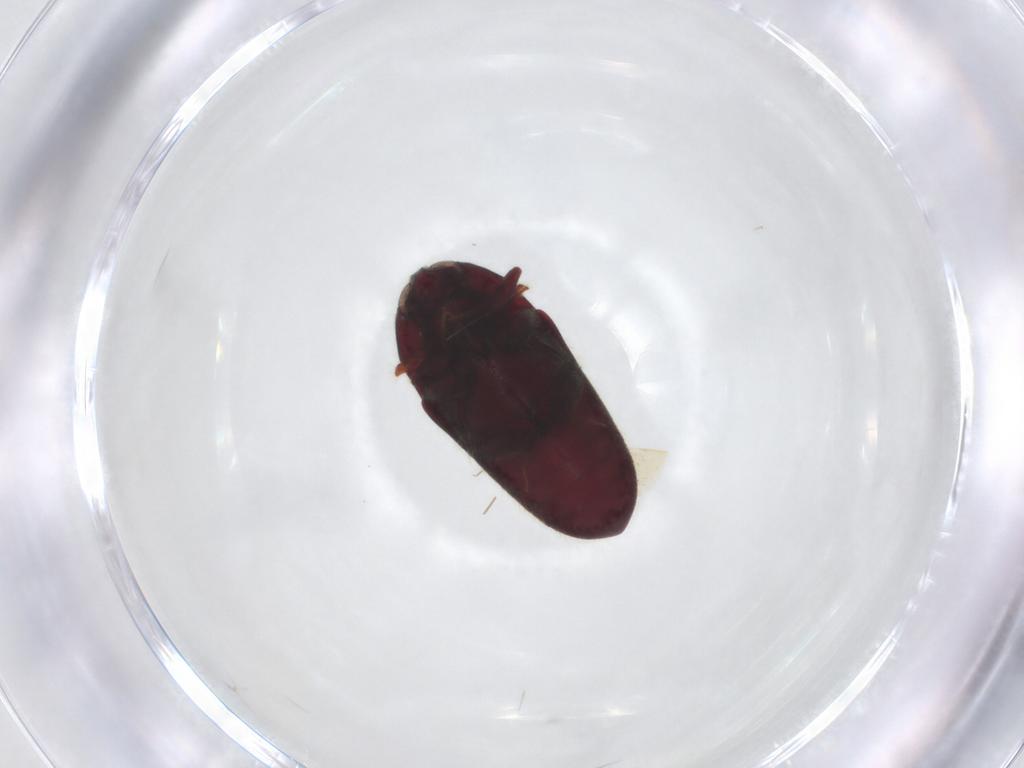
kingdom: Animalia
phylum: Arthropoda
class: Insecta
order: Coleoptera
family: Throscidae
